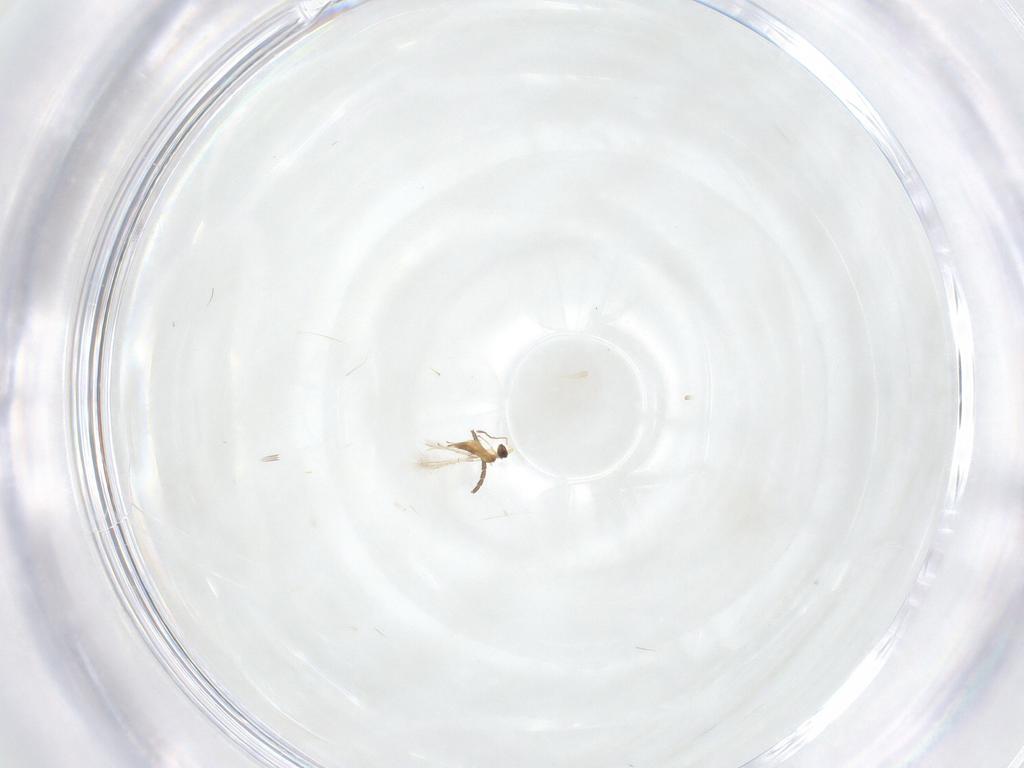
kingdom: Animalia
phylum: Arthropoda
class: Insecta
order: Hymenoptera
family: Mymaridae
